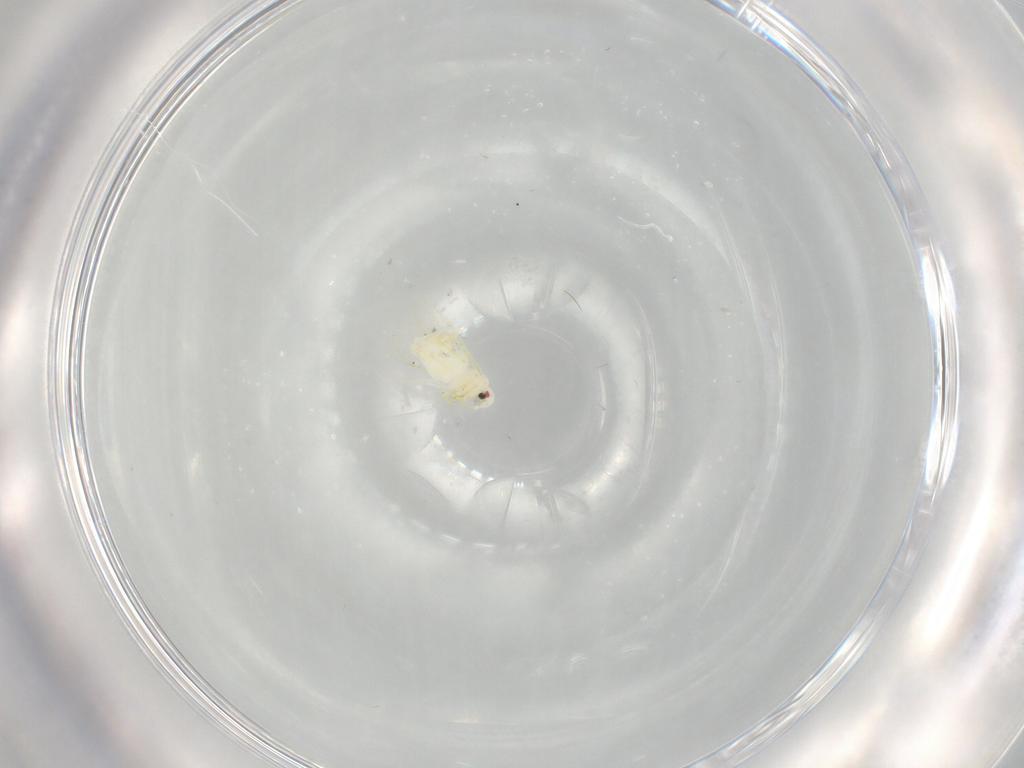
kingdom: Animalia
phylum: Arthropoda
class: Insecta
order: Hemiptera
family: Aleyrodidae
